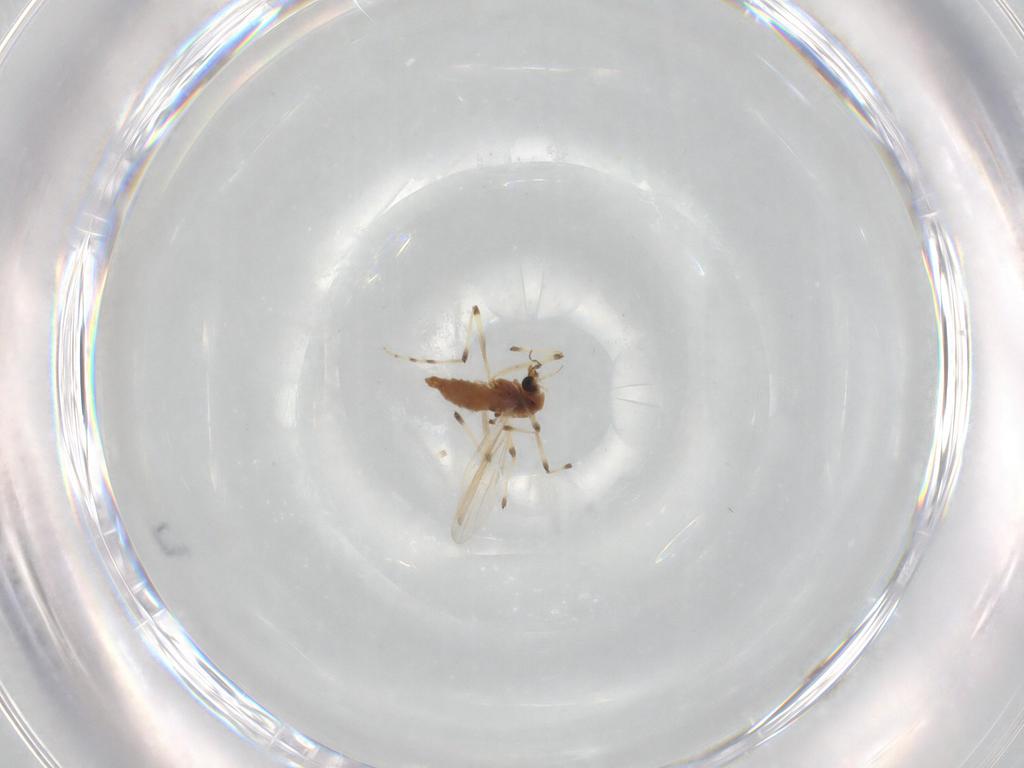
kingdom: Animalia
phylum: Arthropoda
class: Insecta
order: Diptera
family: Chironomidae
